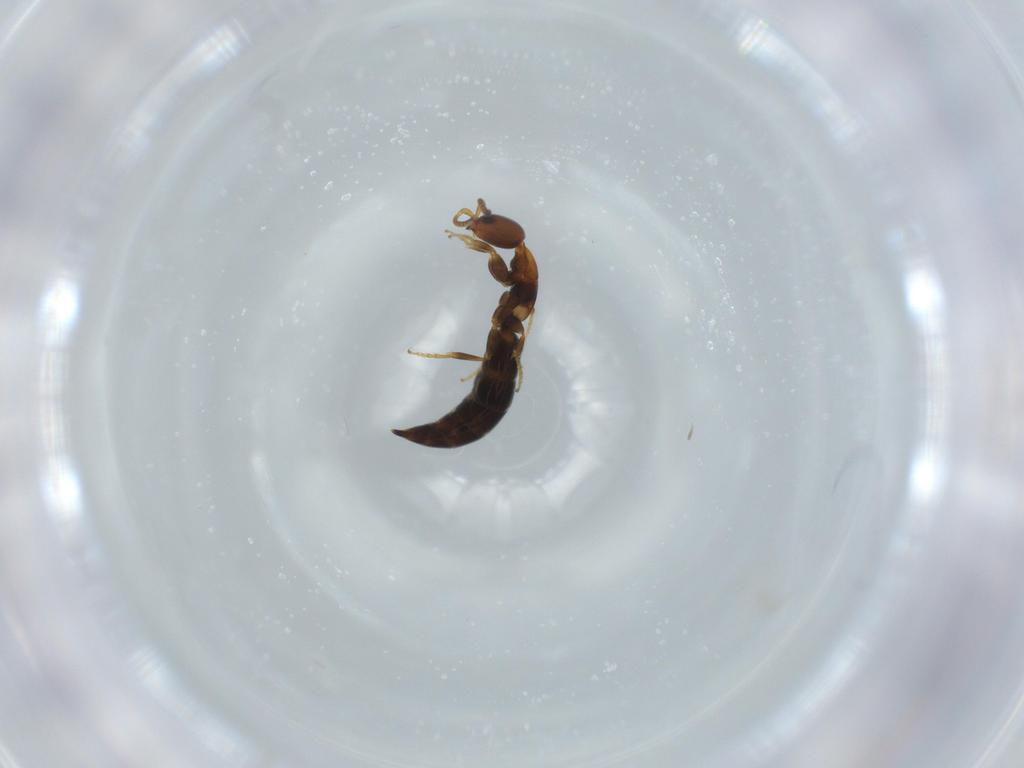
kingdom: Animalia
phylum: Arthropoda
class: Insecta
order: Hymenoptera
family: Bethylidae
